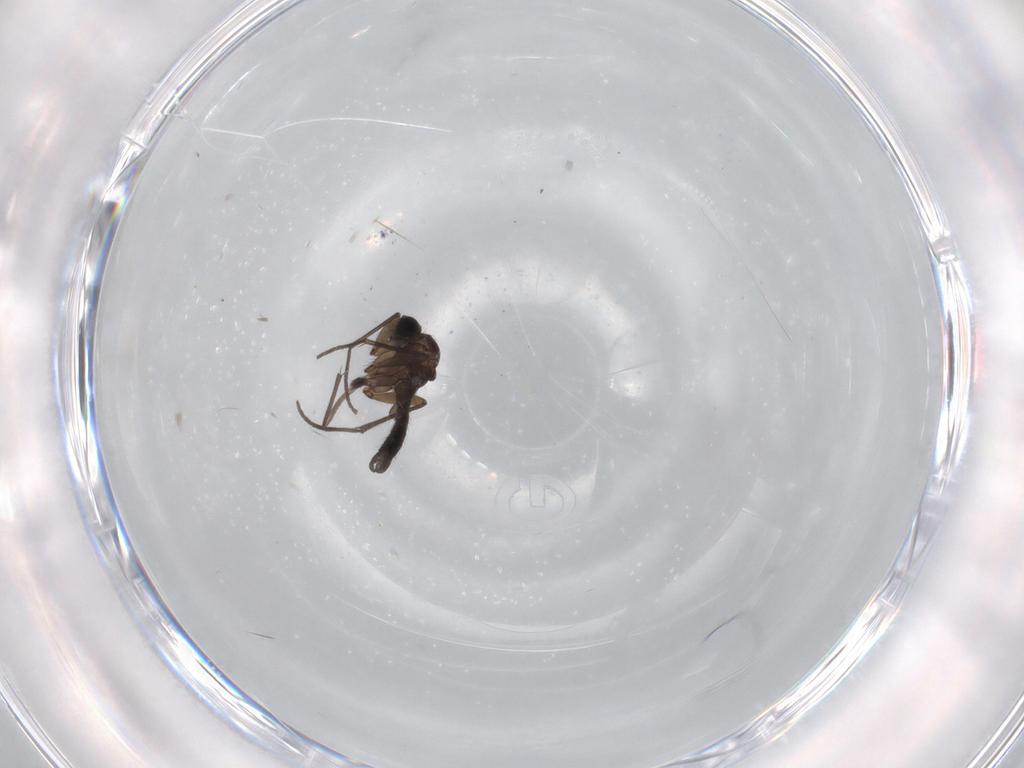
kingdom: Animalia
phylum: Arthropoda
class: Insecta
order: Diptera
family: Sciaridae
